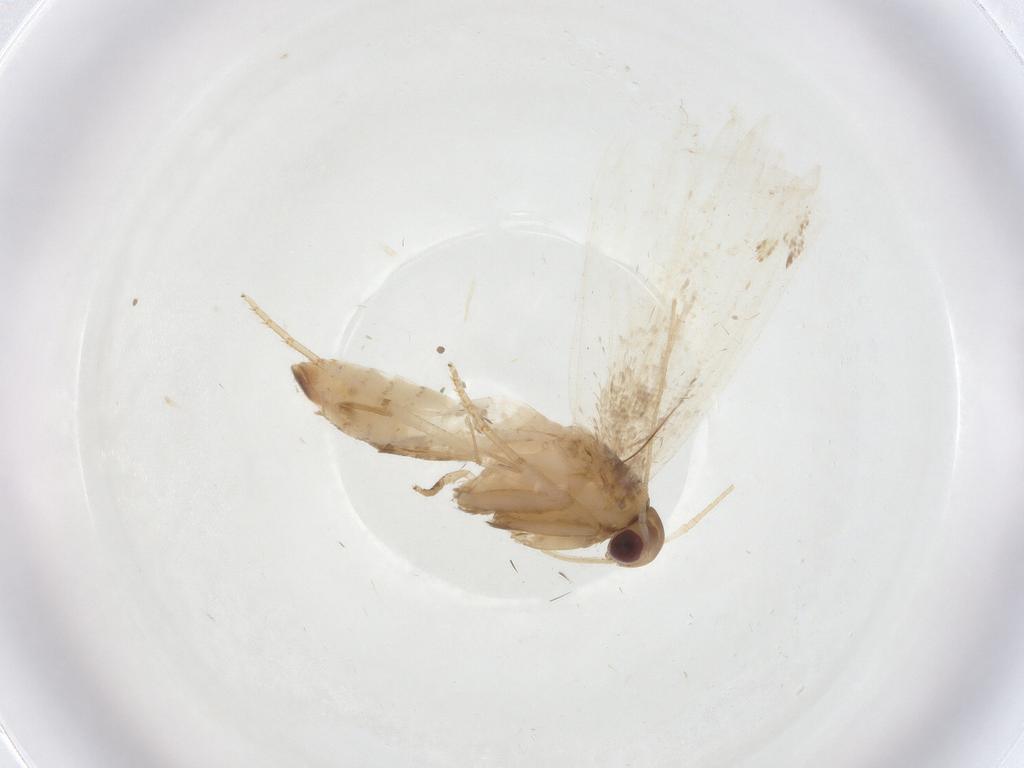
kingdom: Animalia
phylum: Arthropoda
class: Insecta
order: Lepidoptera
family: Gelechiidae
